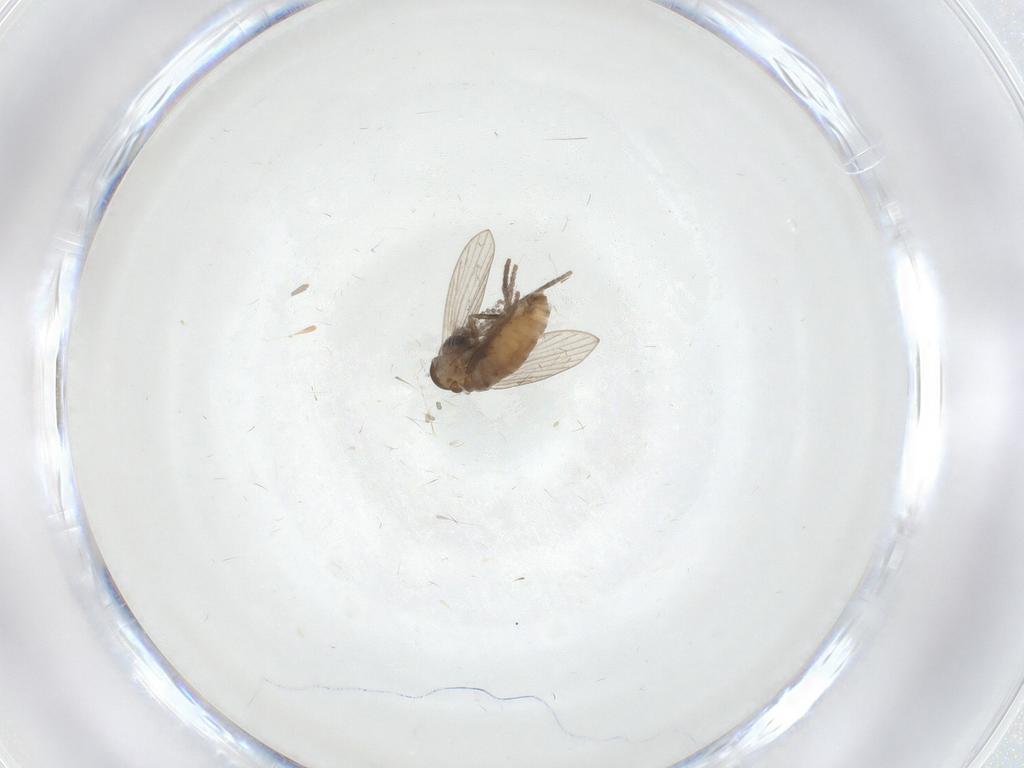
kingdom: Animalia
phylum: Arthropoda
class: Insecta
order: Diptera
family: Psychodidae
